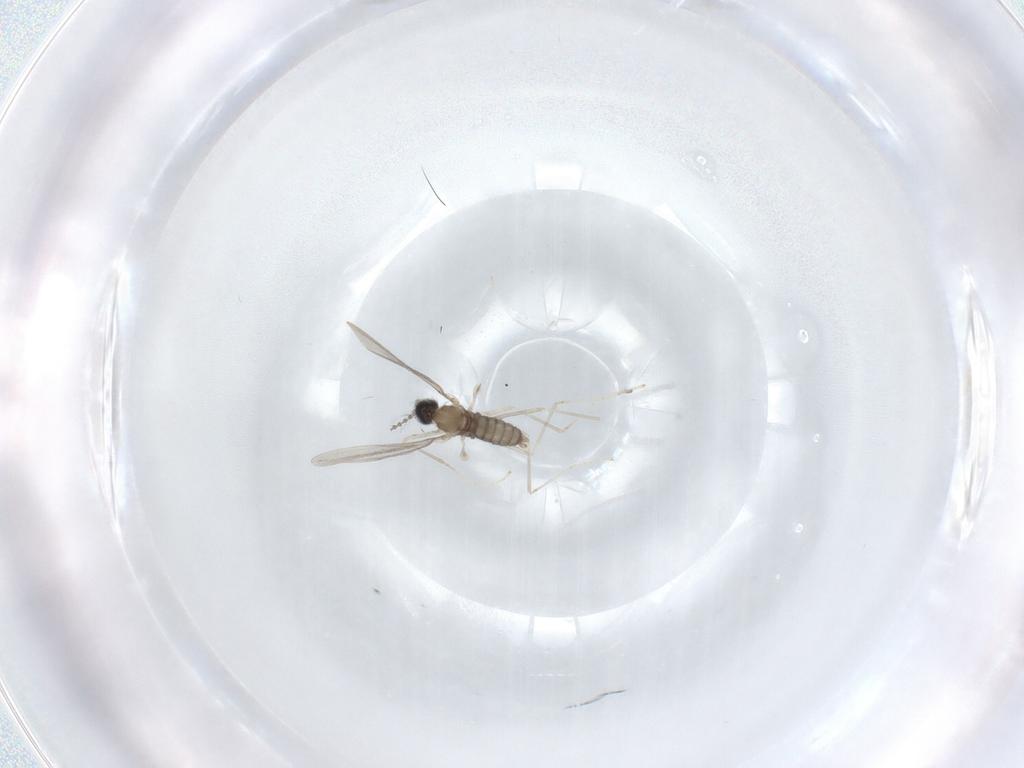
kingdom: Animalia
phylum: Arthropoda
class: Insecta
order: Diptera
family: Cecidomyiidae
